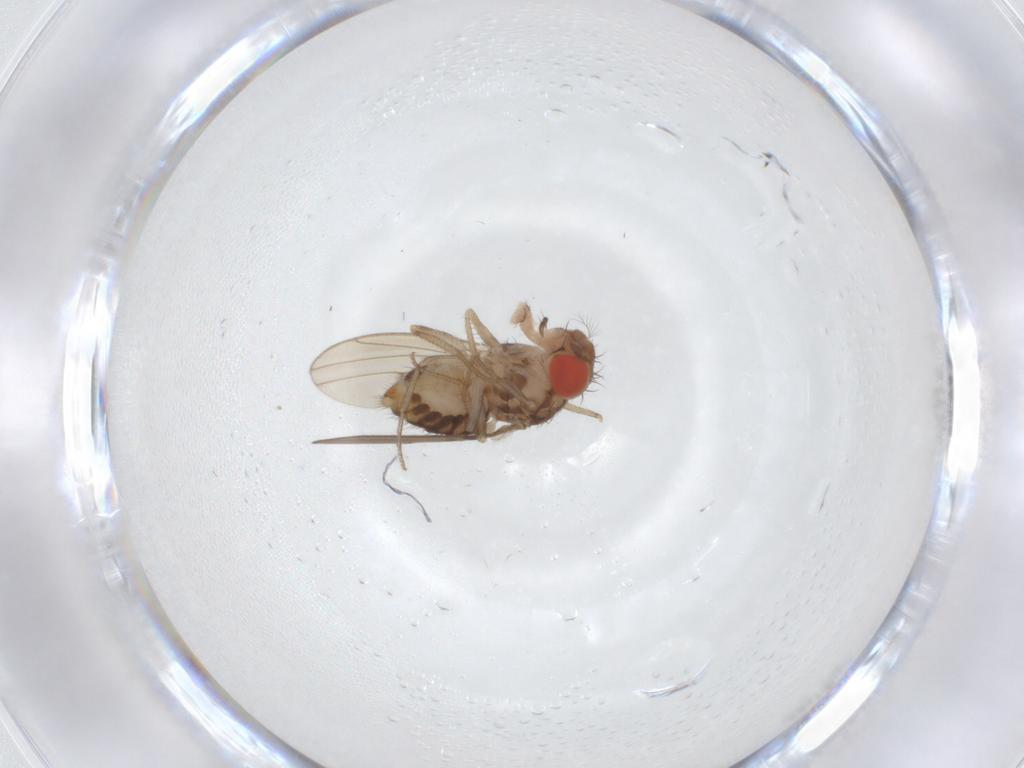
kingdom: Animalia
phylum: Arthropoda
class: Insecta
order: Diptera
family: Drosophilidae
